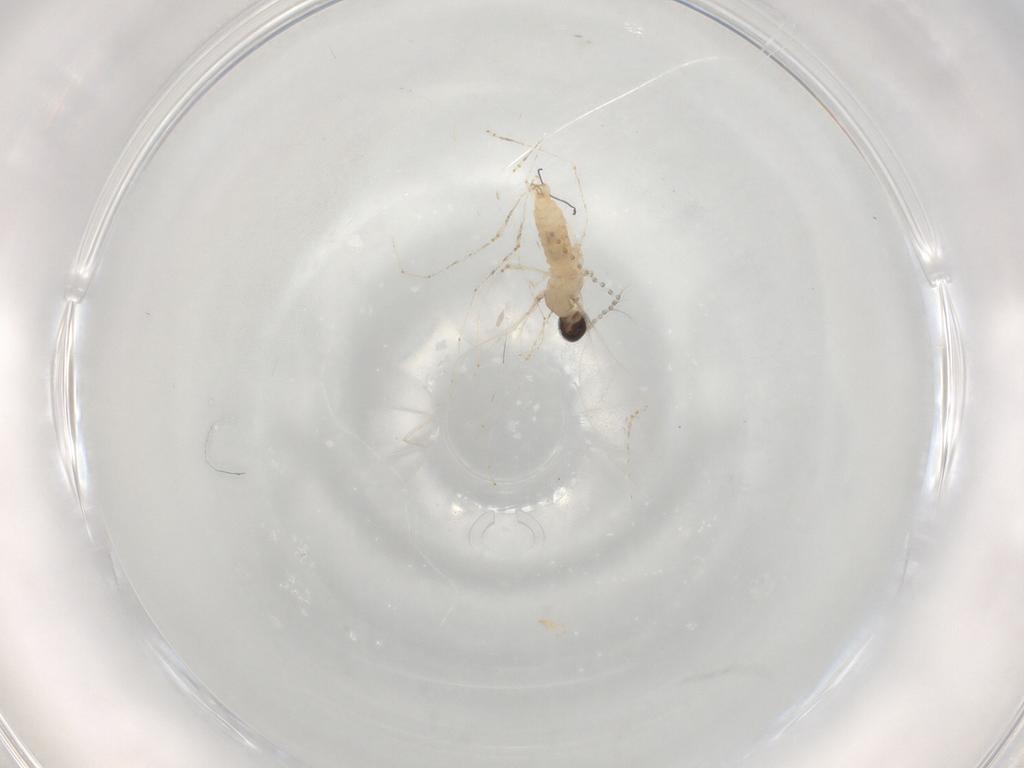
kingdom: Animalia
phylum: Arthropoda
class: Insecta
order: Diptera
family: Cecidomyiidae
